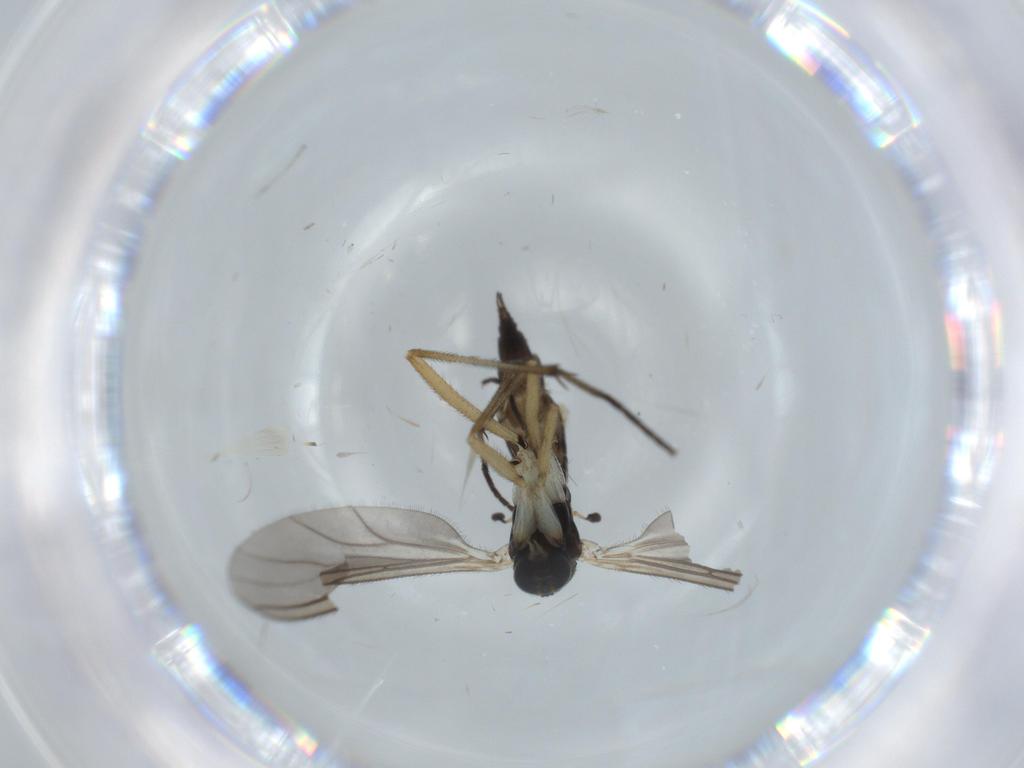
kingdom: Animalia
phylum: Arthropoda
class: Insecta
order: Diptera
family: Sciaridae
